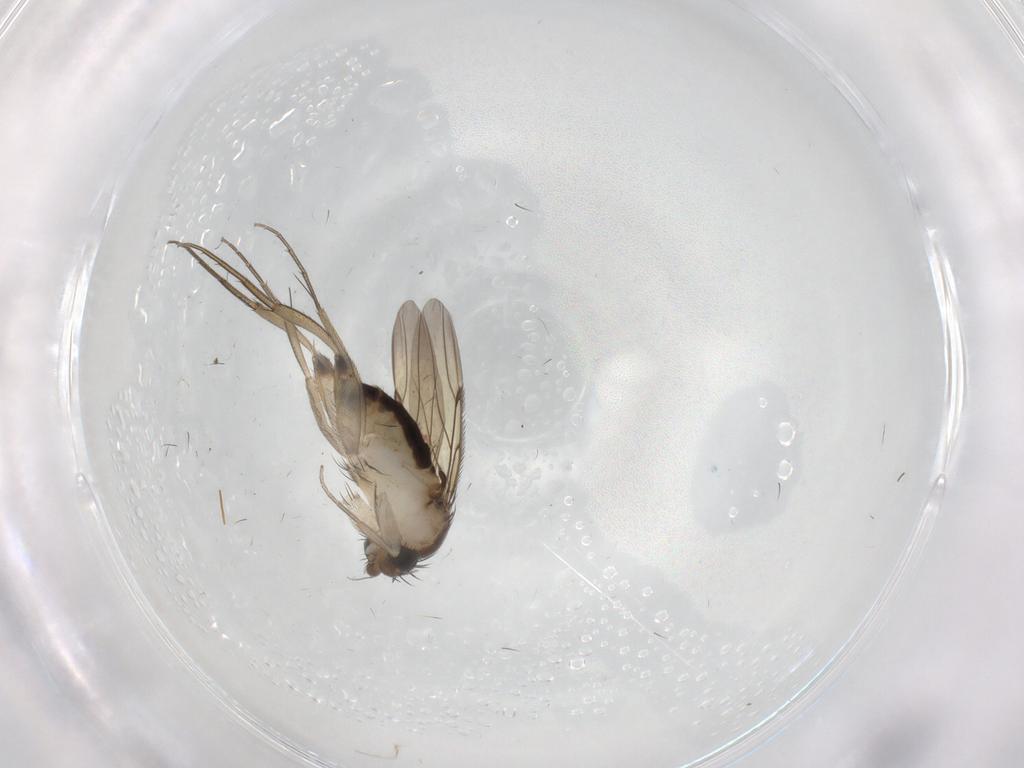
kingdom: Animalia
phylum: Arthropoda
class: Insecta
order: Diptera
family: Phoridae
